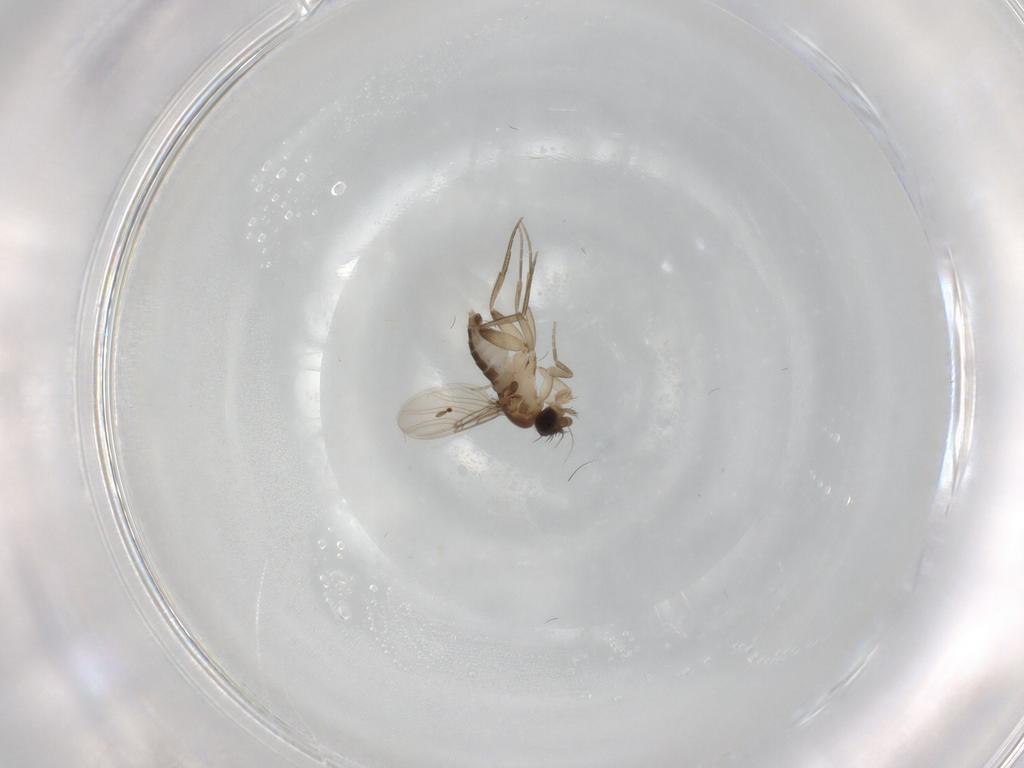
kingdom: Animalia
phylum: Arthropoda
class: Insecta
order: Diptera
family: Phoridae
